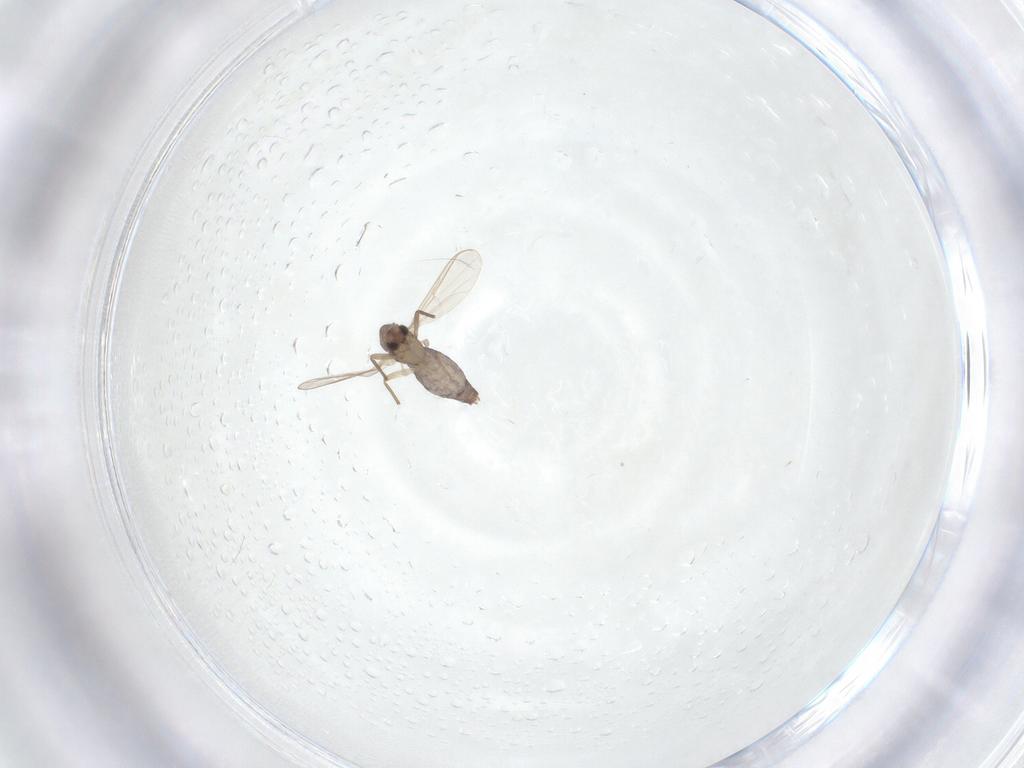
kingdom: Animalia
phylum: Arthropoda
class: Insecta
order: Diptera
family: Chironomidae
